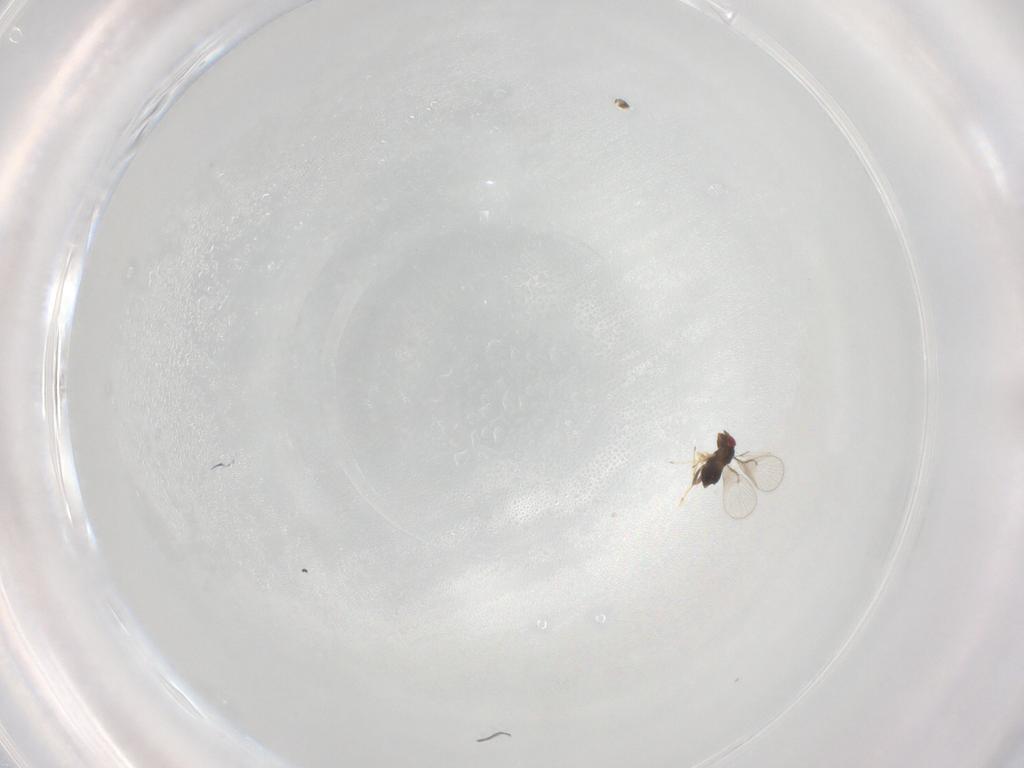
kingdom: Animalia
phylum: Arthropoda
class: Insecta
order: Hymenoptera
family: Trichogrammatidae
